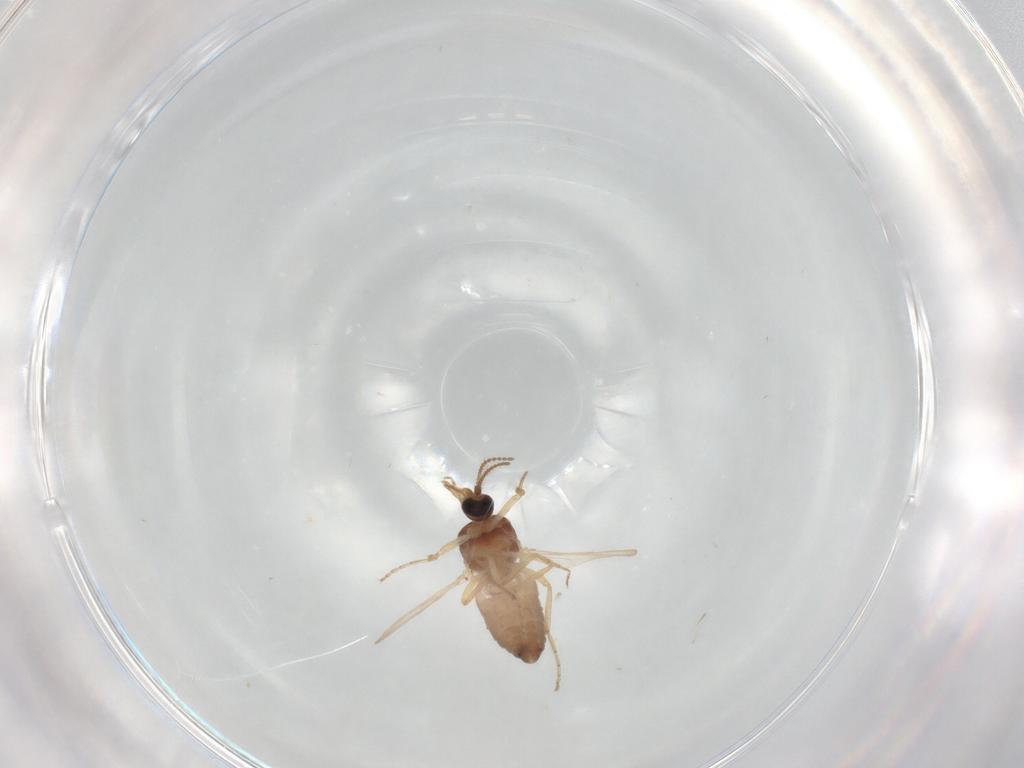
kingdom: Animalia
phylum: Arthropoda
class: Insecta
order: Diptera
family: Ceratopogonidae
